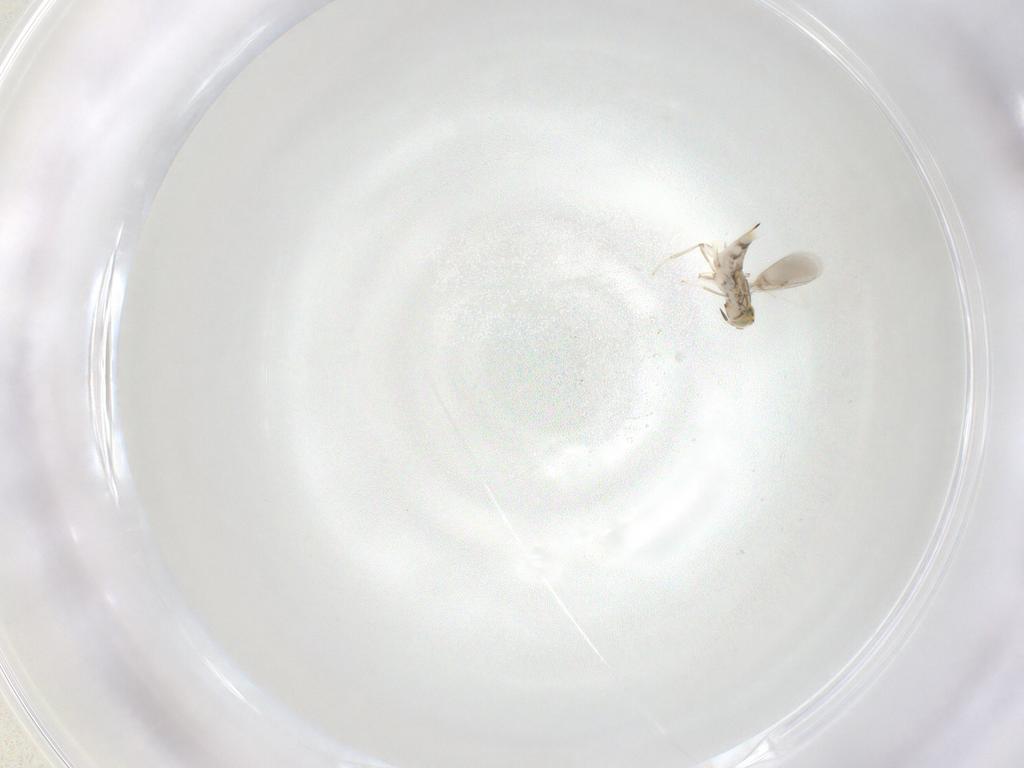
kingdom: Animalia
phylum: Arthropoda
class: Insecta
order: Hymenoptera
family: Aphelinidae
